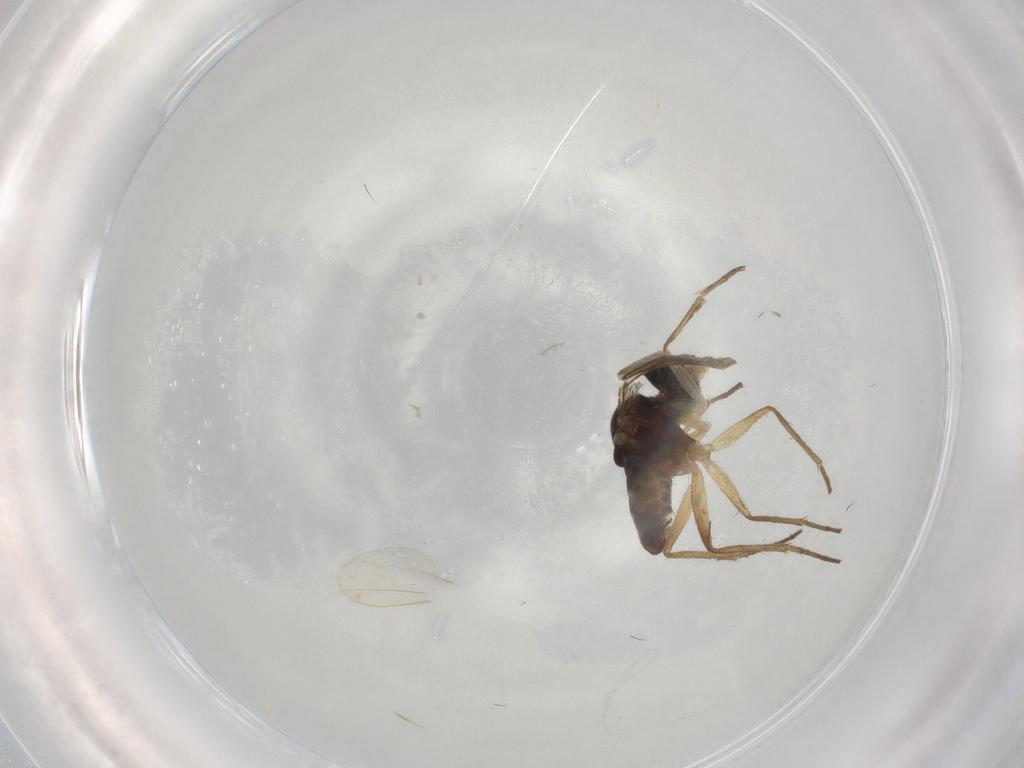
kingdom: Animalia
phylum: Arthropoda
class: Insecta
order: Diptera
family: Dolichopodidae
